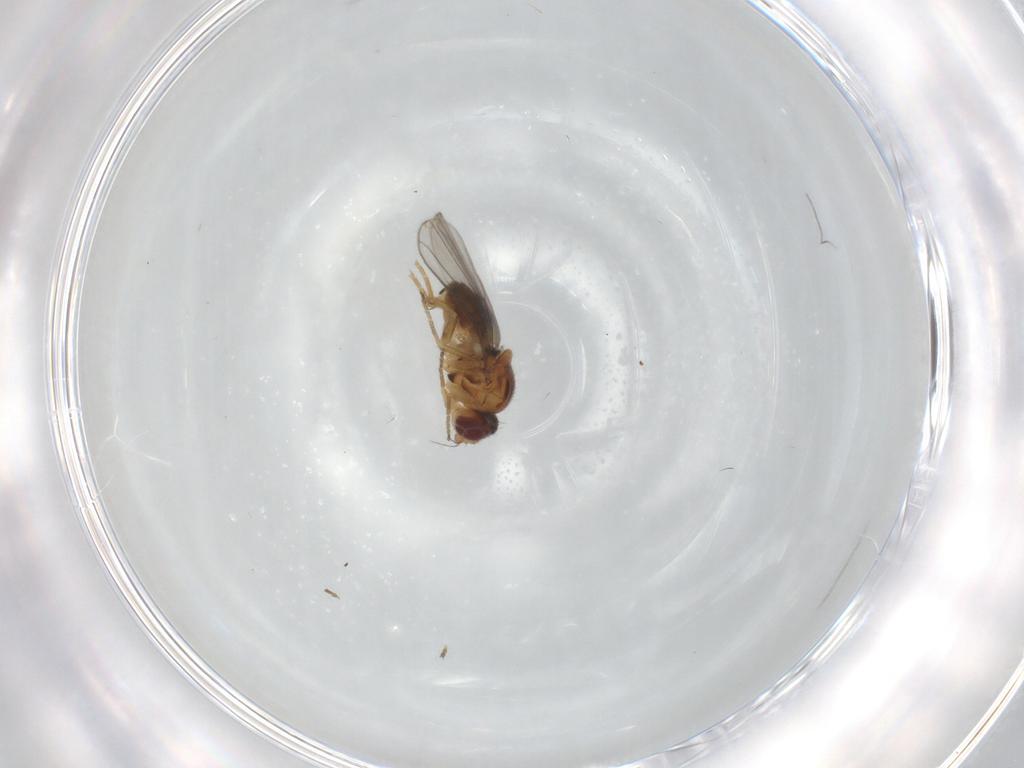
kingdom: Animalia
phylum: Arthropoda
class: Insecta
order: Diptera
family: Chloropidae
